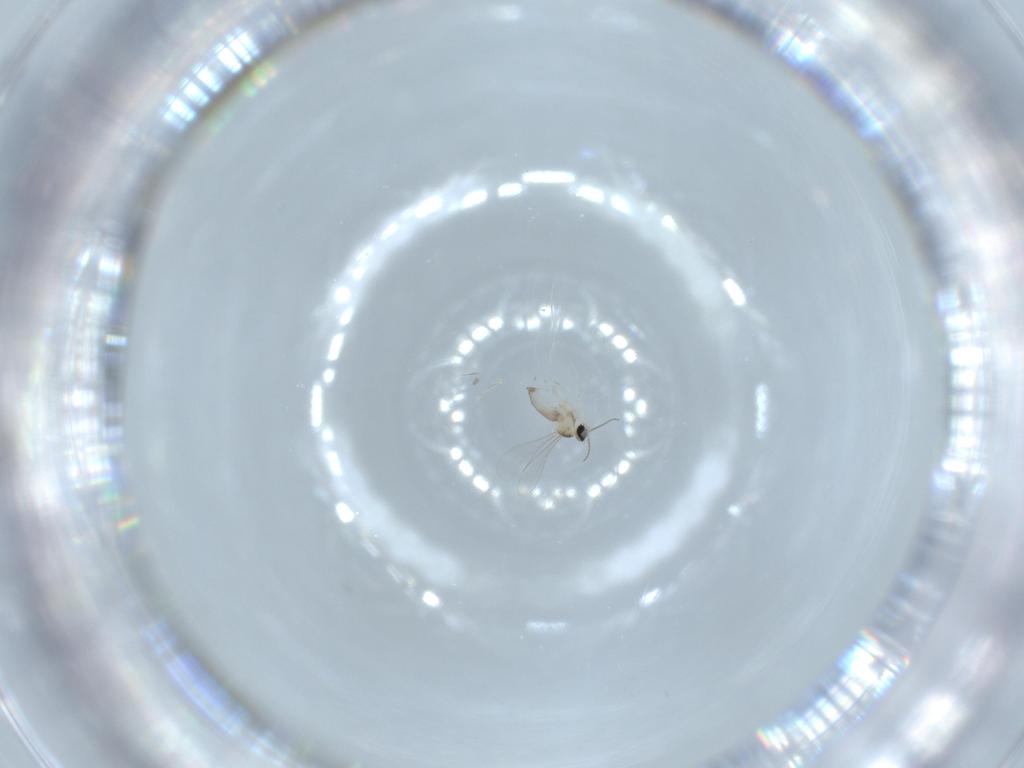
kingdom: Animalia
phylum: Arthropoda
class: Insecta
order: Diptera
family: Cecidomyiidae
